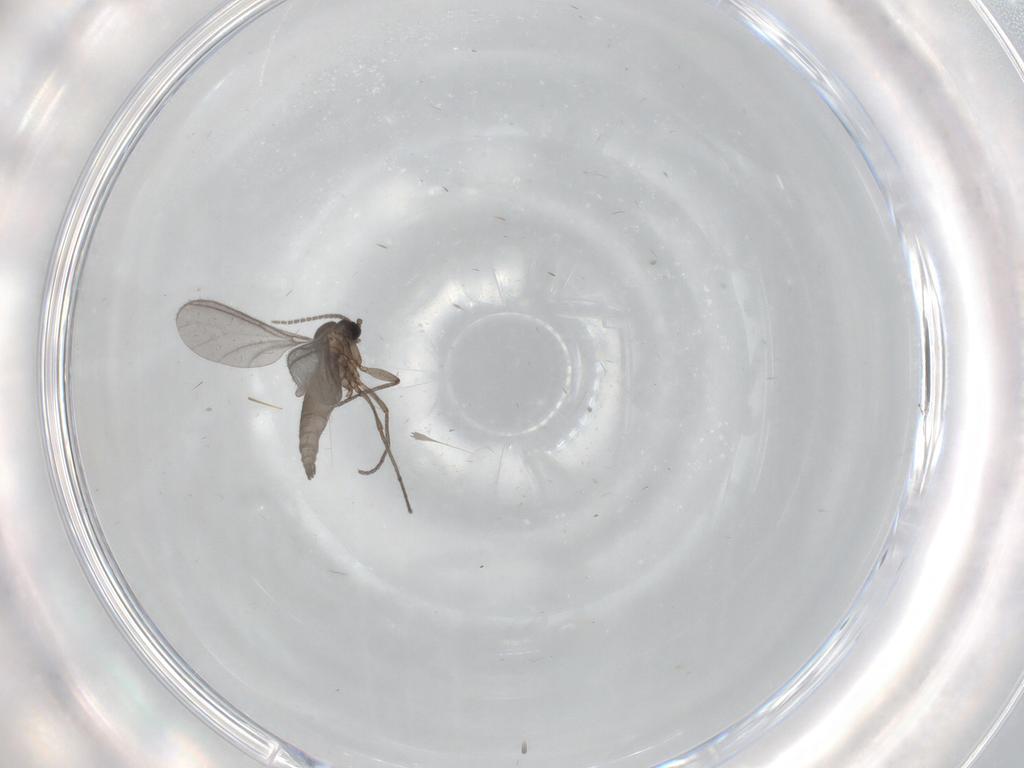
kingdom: Animalia
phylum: Arthropoda
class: Insecta
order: Diptera
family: Sciaridae
